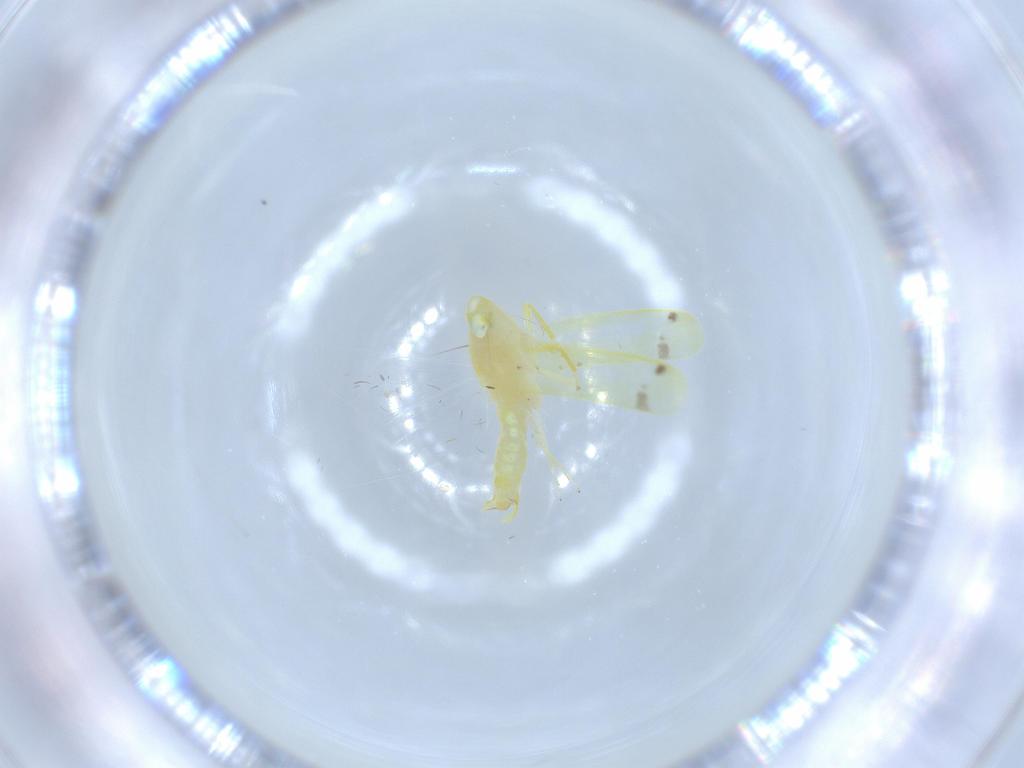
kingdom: Animalia
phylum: Arthropoda
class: Insecta
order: Hemiptera
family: Cicadellidae
